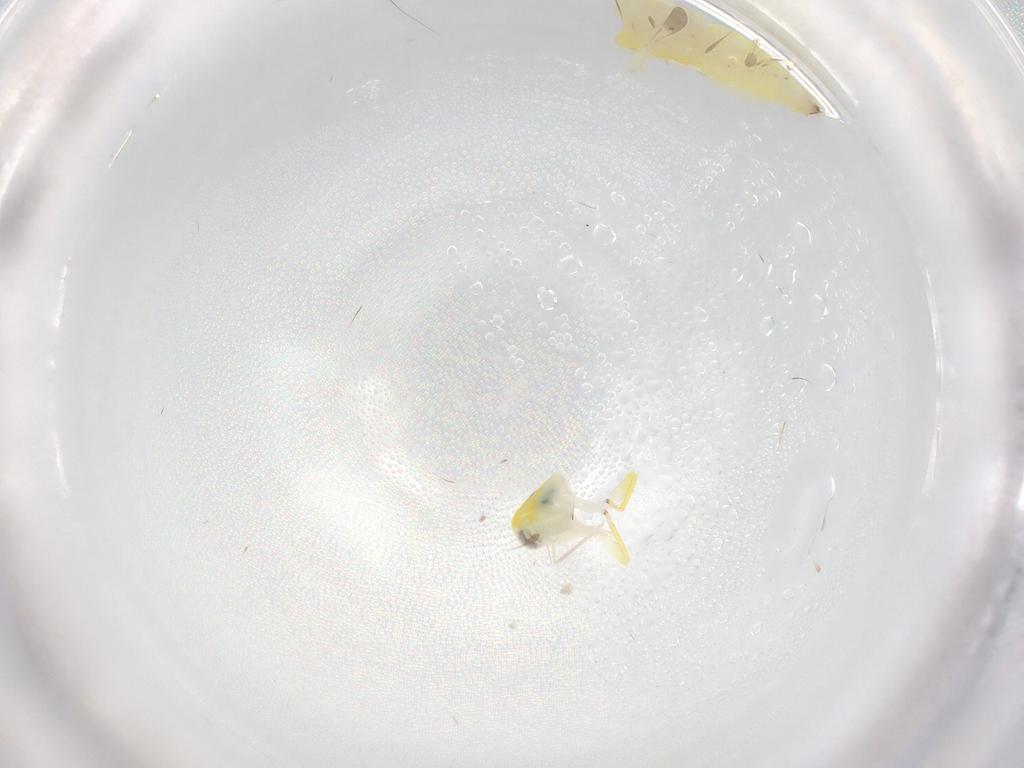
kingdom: Animalia
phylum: Arthropoda
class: Insecta
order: Hemiptera
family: Cicadellidae
